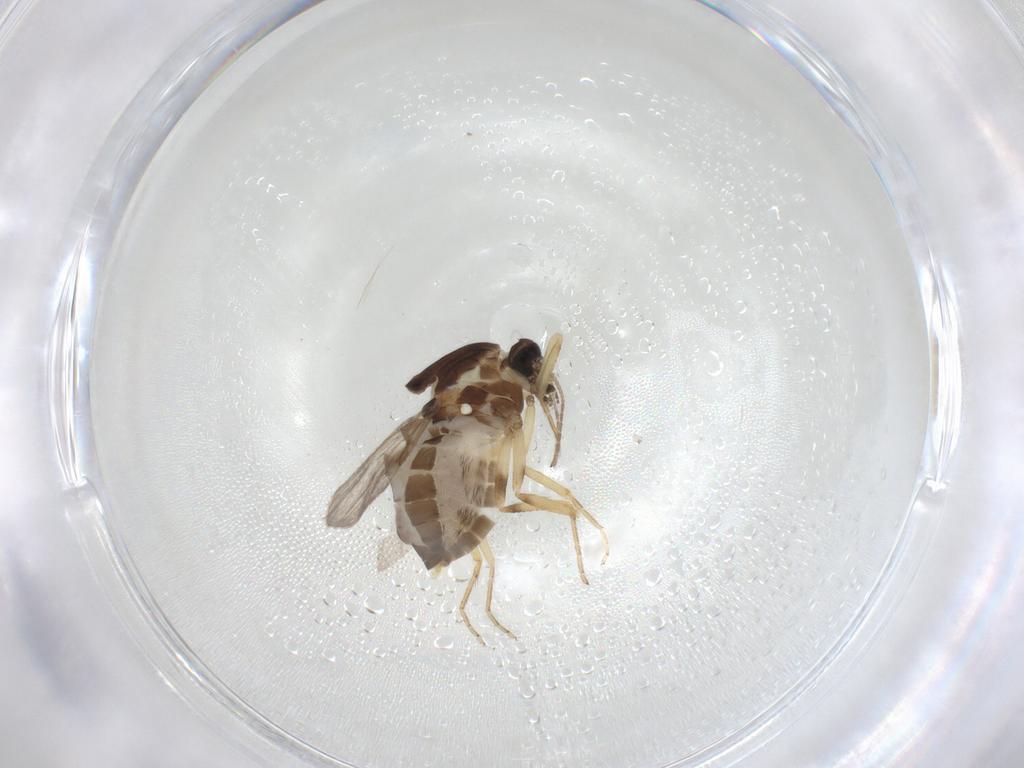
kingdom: Animalia
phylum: Arthropoda
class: Insecta
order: Diptera
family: Ceratopogonidae
